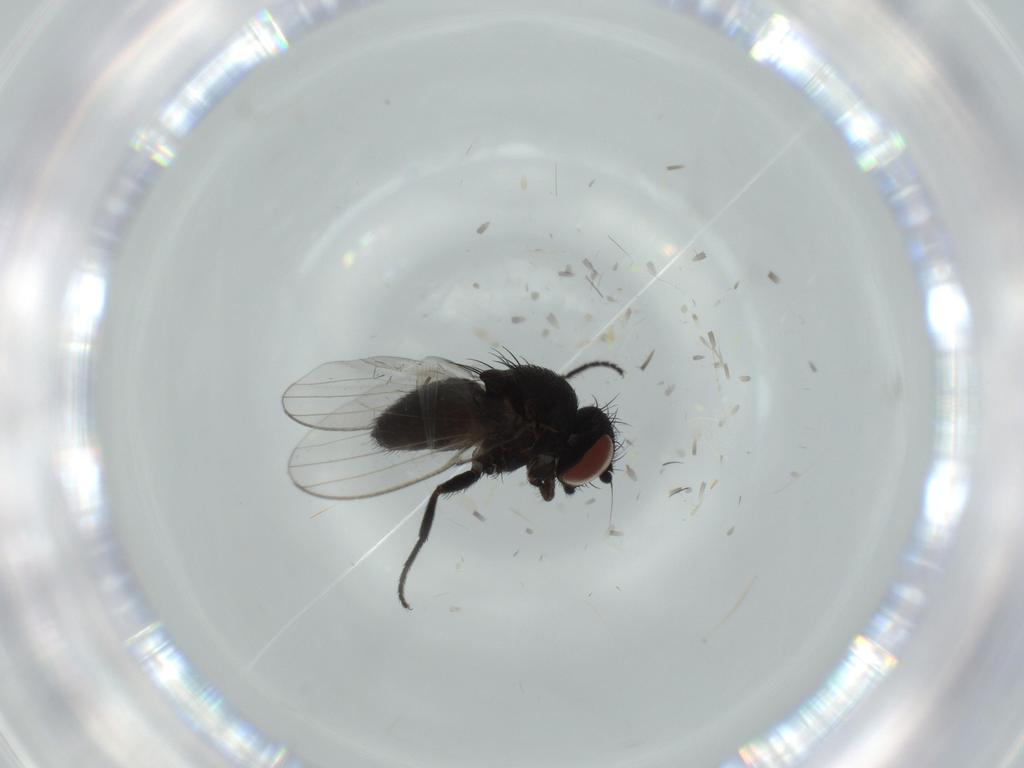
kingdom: Animalia
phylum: Arthropoda
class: Insecta
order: Diptera
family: Milichiidae
